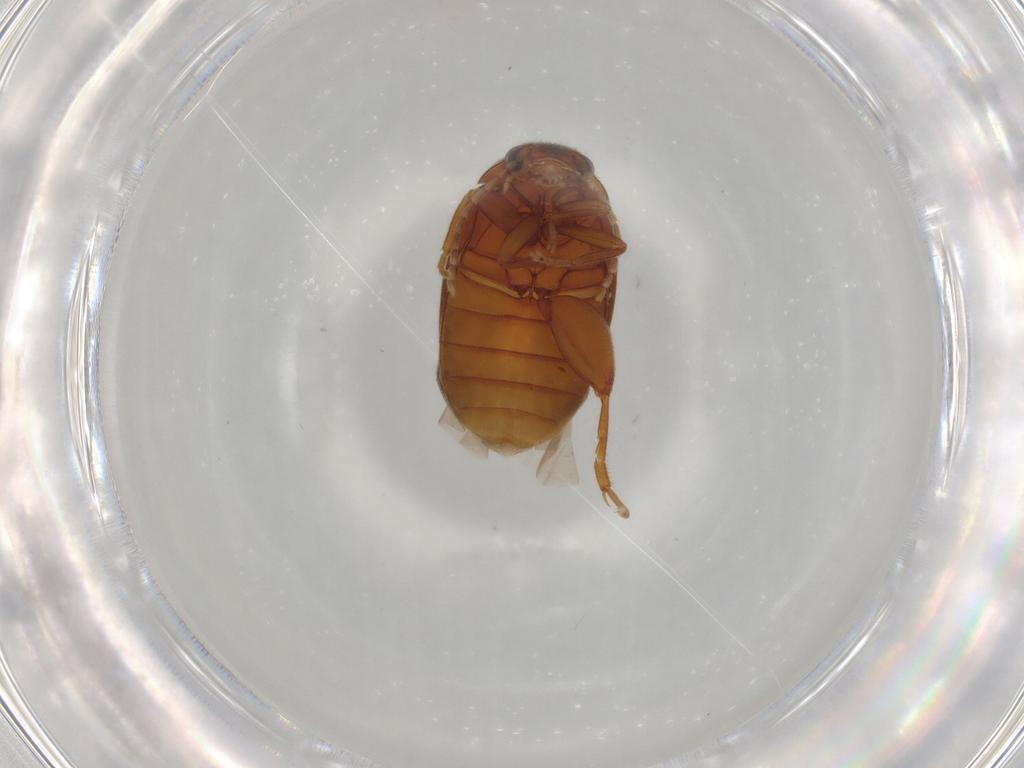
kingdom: Animalia
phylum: Arthropoda
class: Insecta
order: Coleoptera
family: Scirtidae
